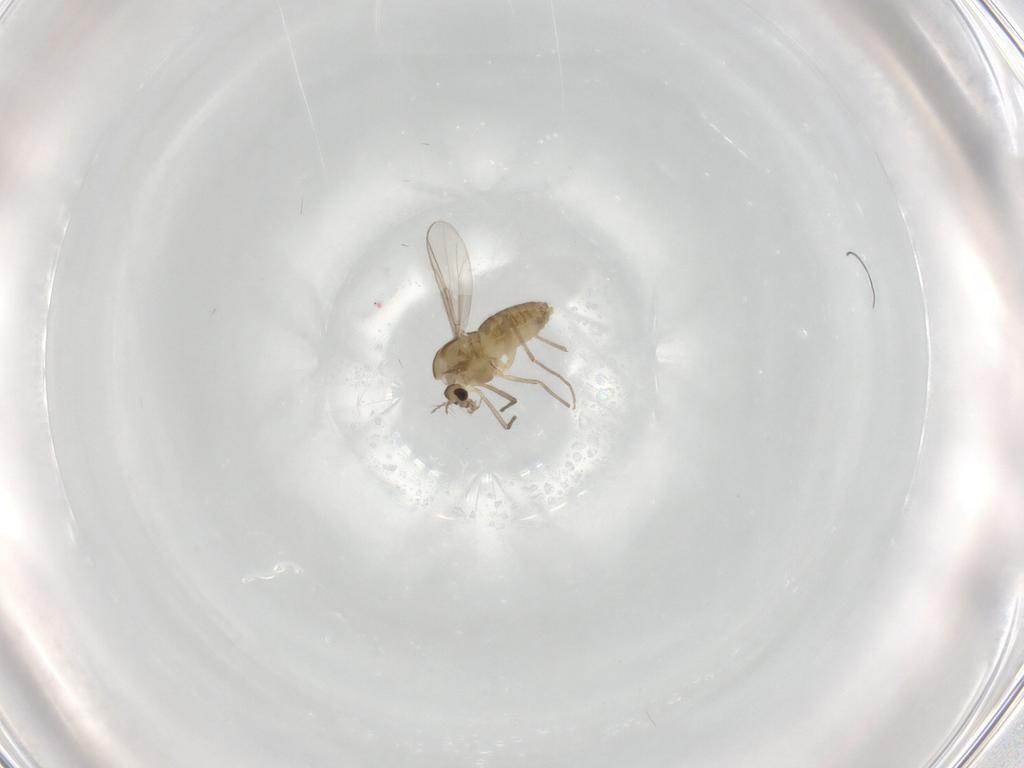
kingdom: Animalia
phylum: Arthropoda
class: Insecta
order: Diptera
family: Chironomidae
